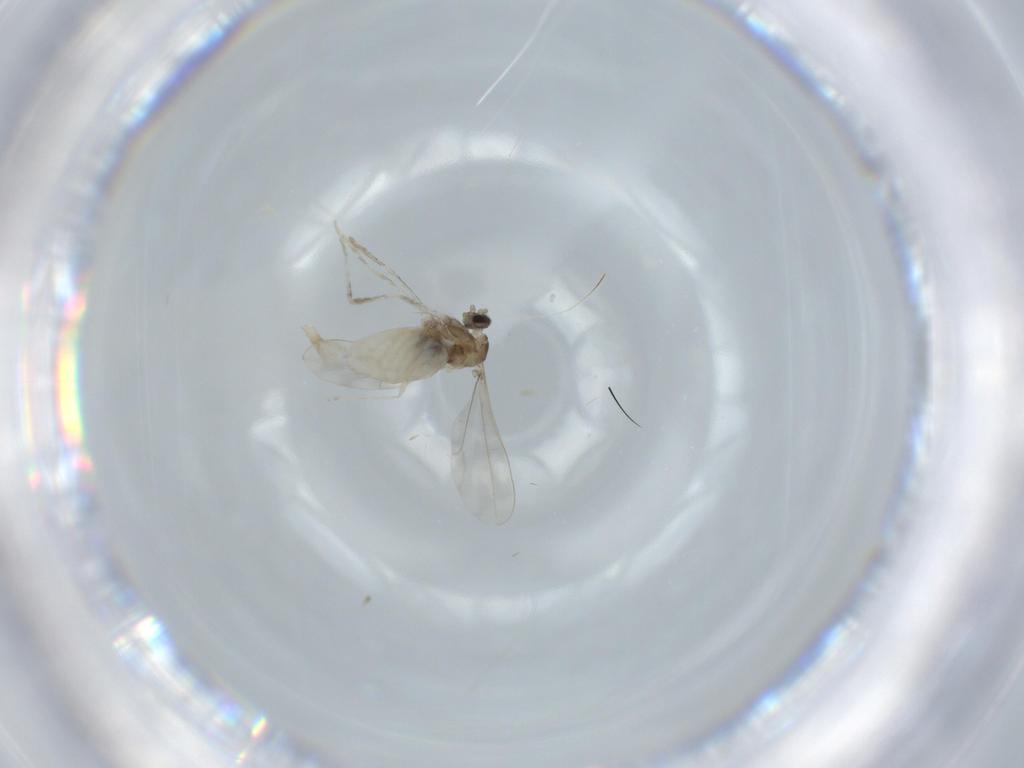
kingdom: Animalia
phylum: Arthropoda
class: Insecta
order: Diptera
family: Cecidomyiidae
